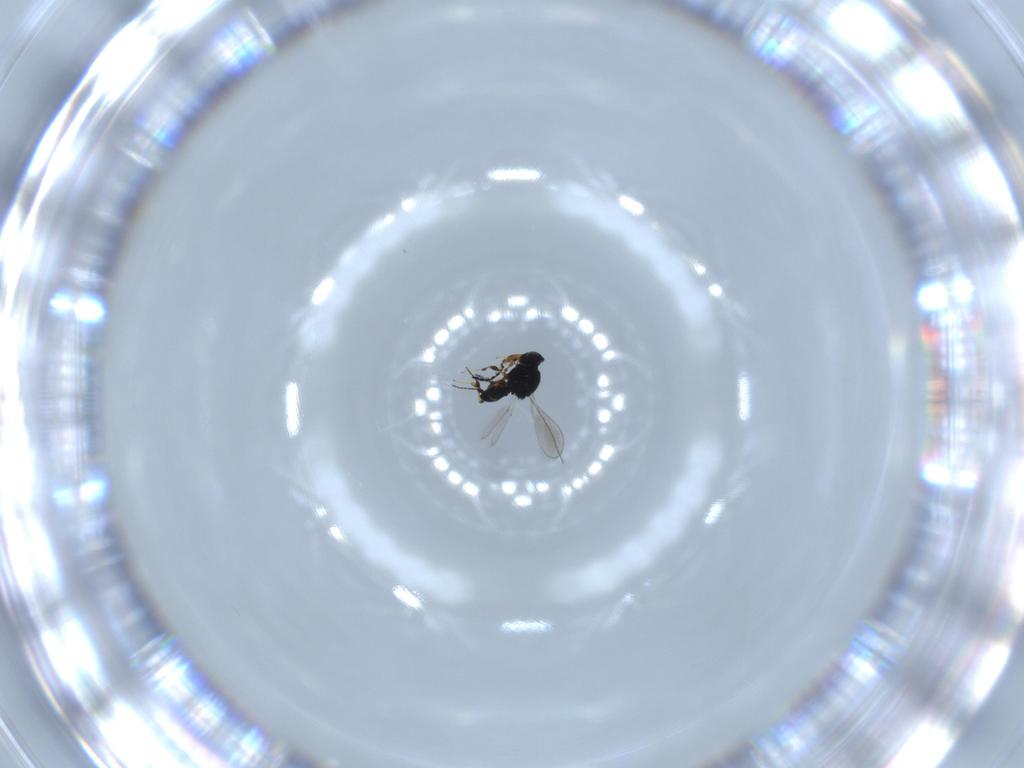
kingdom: Animalia
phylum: Arthropoda
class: Insecta
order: Hymenoptera
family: Platygastridae
